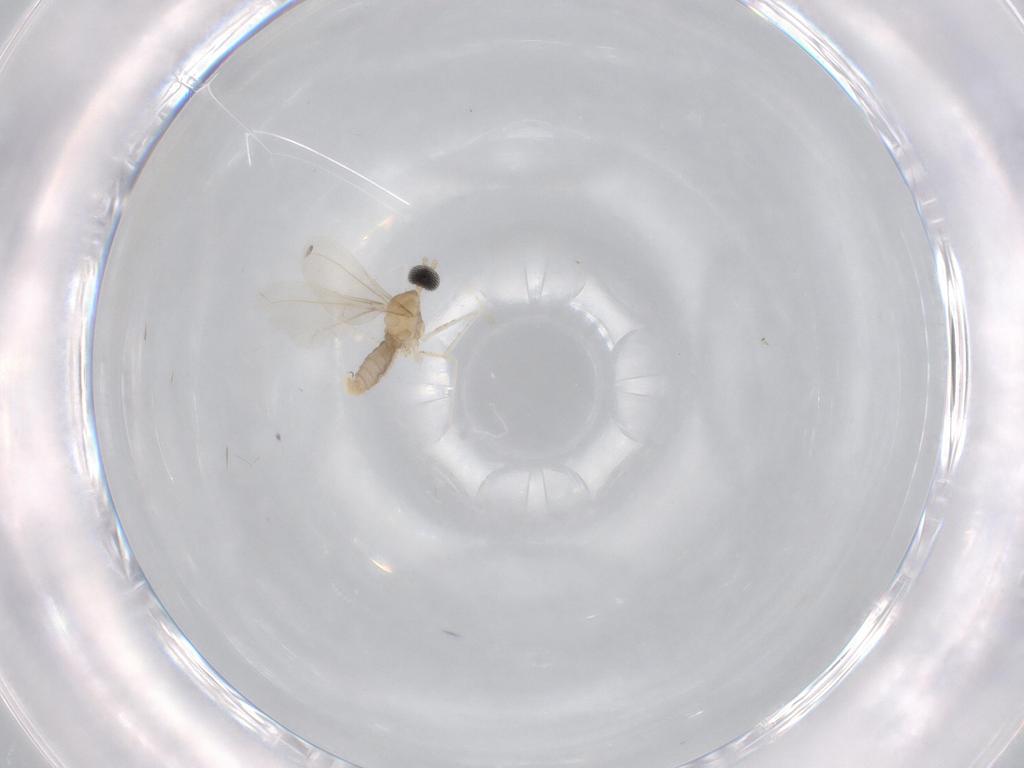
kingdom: Animalia
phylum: Arthropoda
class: Insecta
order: Diptera
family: Cecidomyiidae
